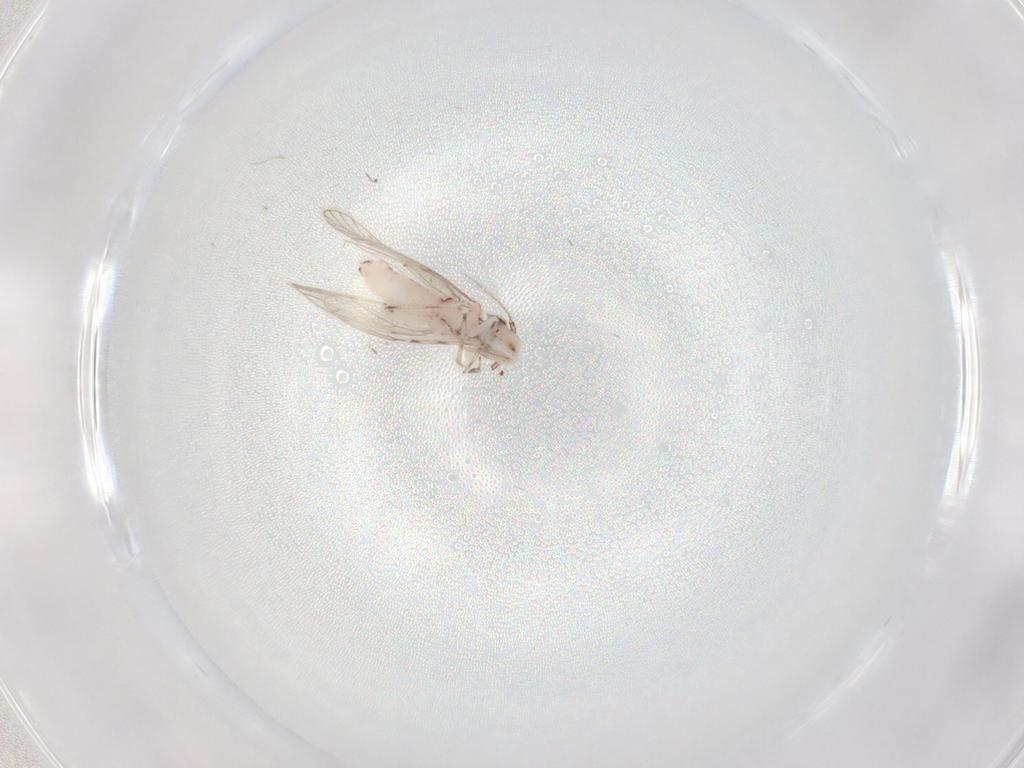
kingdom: Animalia
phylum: Arthropoda
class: Insecta
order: Psocodea
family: Caeciliusidae
